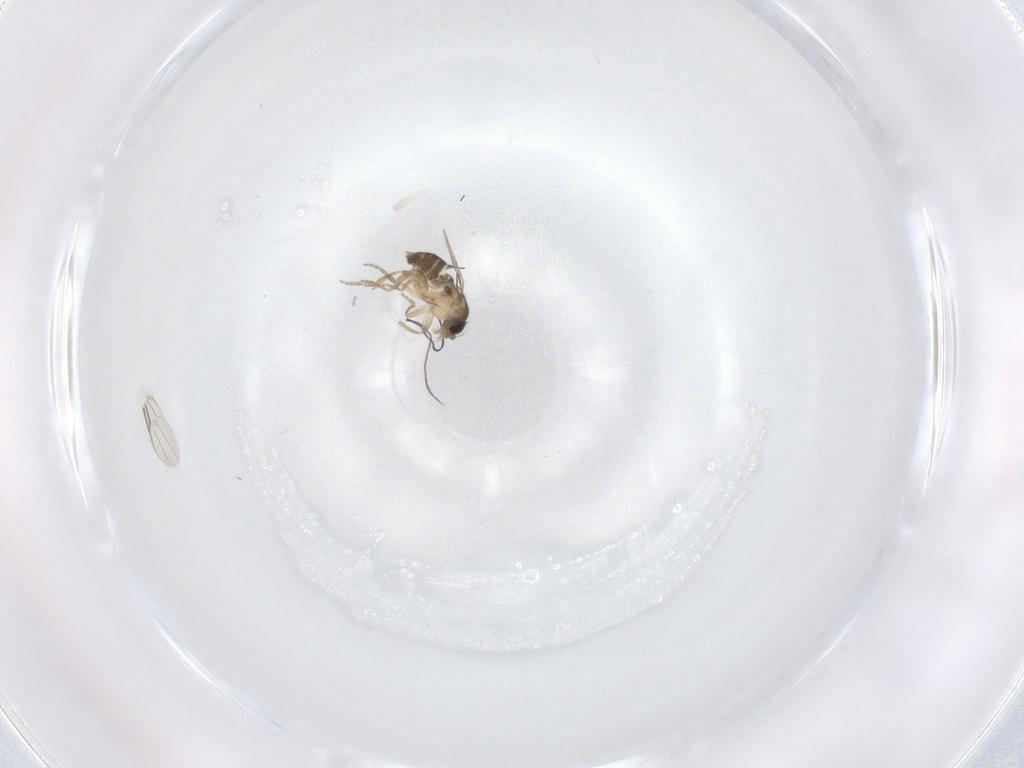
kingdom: Animalia
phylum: Arthropoda
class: Insecta
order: Diptera
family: Phoridae
